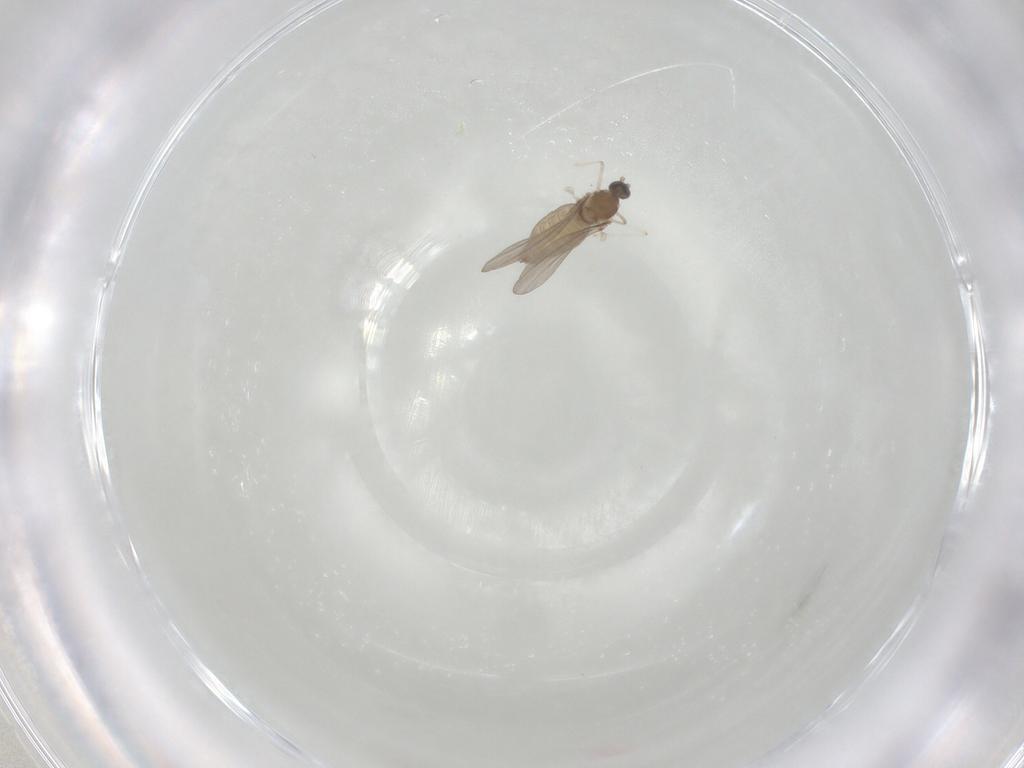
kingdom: Animalia
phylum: Arthropoda
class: Insecta
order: Diptera
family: Cecidomyiidae
